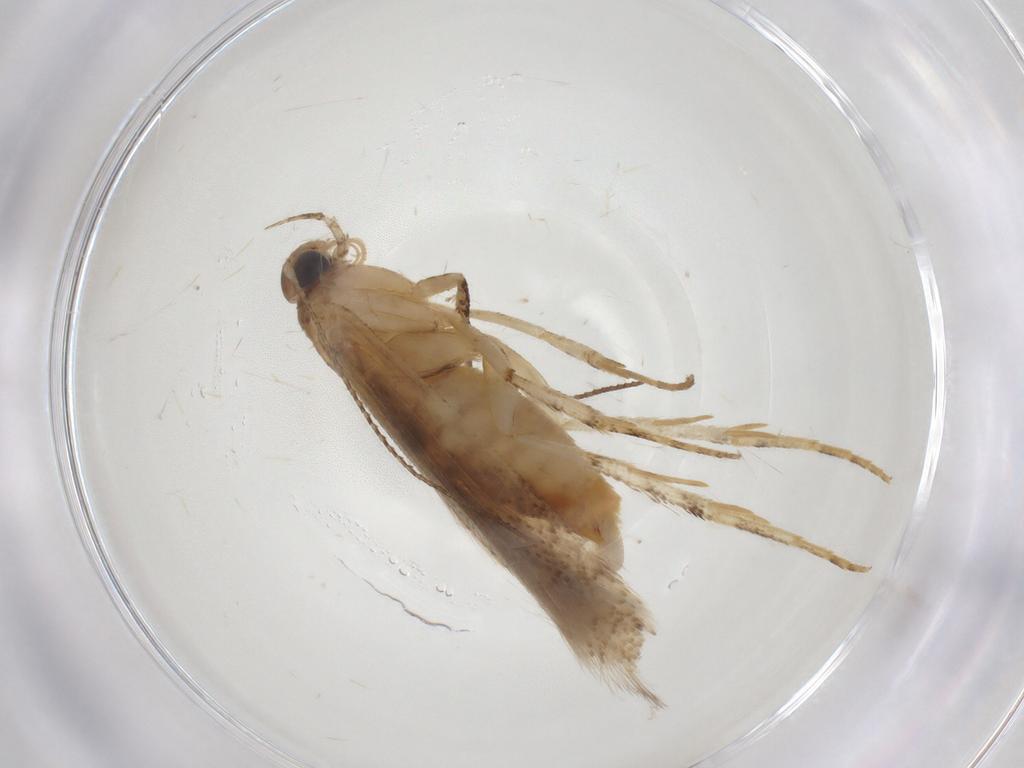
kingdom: Animalia
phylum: Arthropoda
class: Insecta
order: Lepidoptera
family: Gelechiidae
